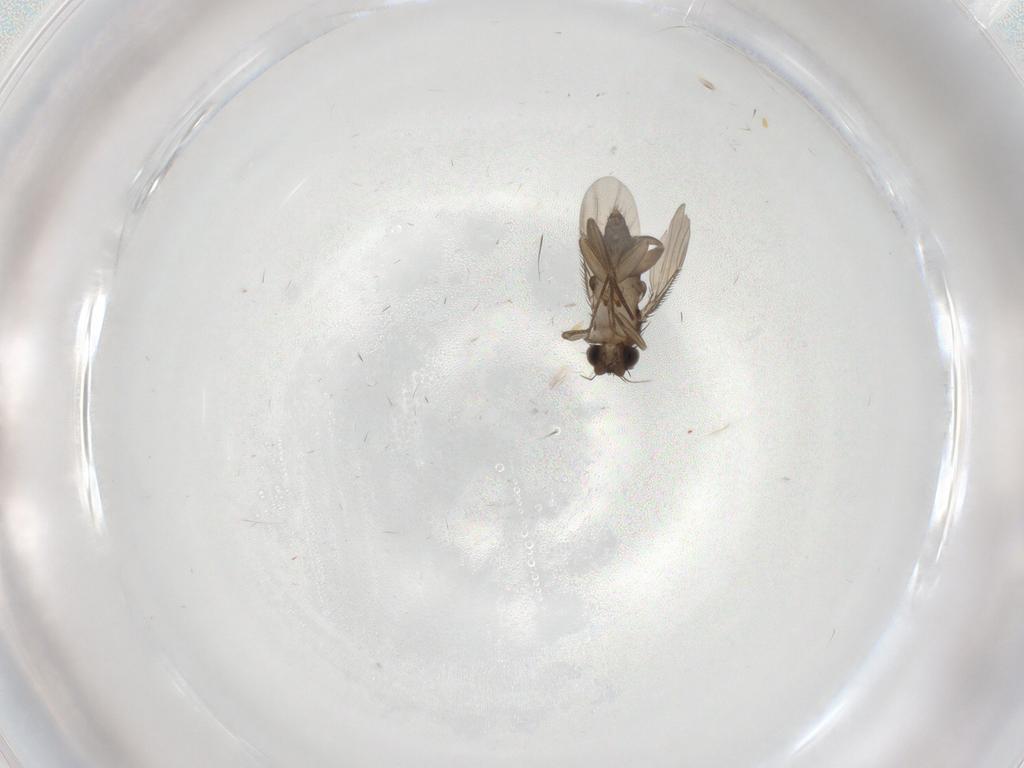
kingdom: Animalia
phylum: Arthropoda
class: Insecta
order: Diptera
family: Phoridae
